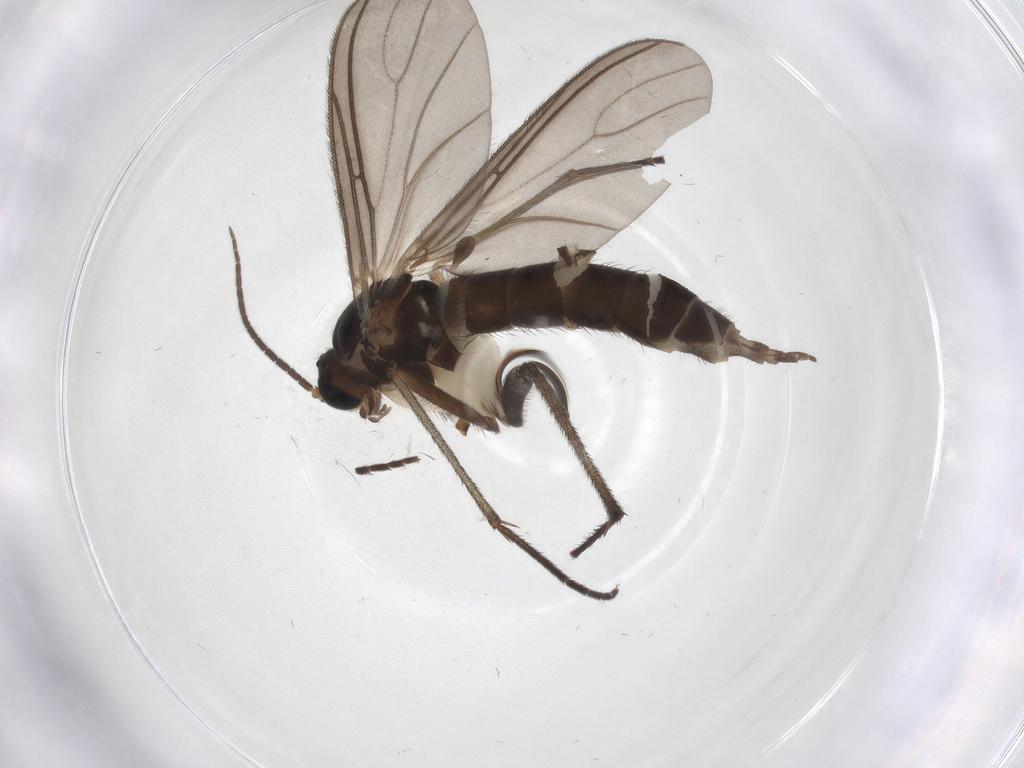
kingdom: Animalia
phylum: Arthropoda
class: Insecta
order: Diptera
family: Sciaridae
